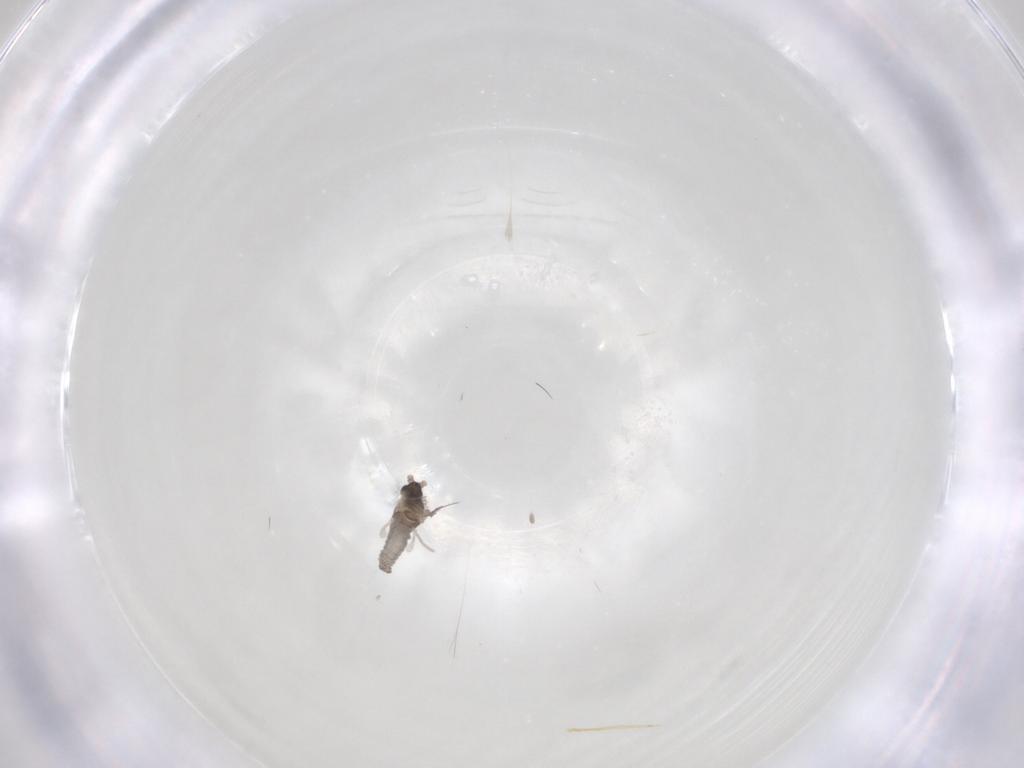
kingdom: Animalia
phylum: Arthropoda
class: Insecta
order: Diptera
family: Cecidomyiidae
